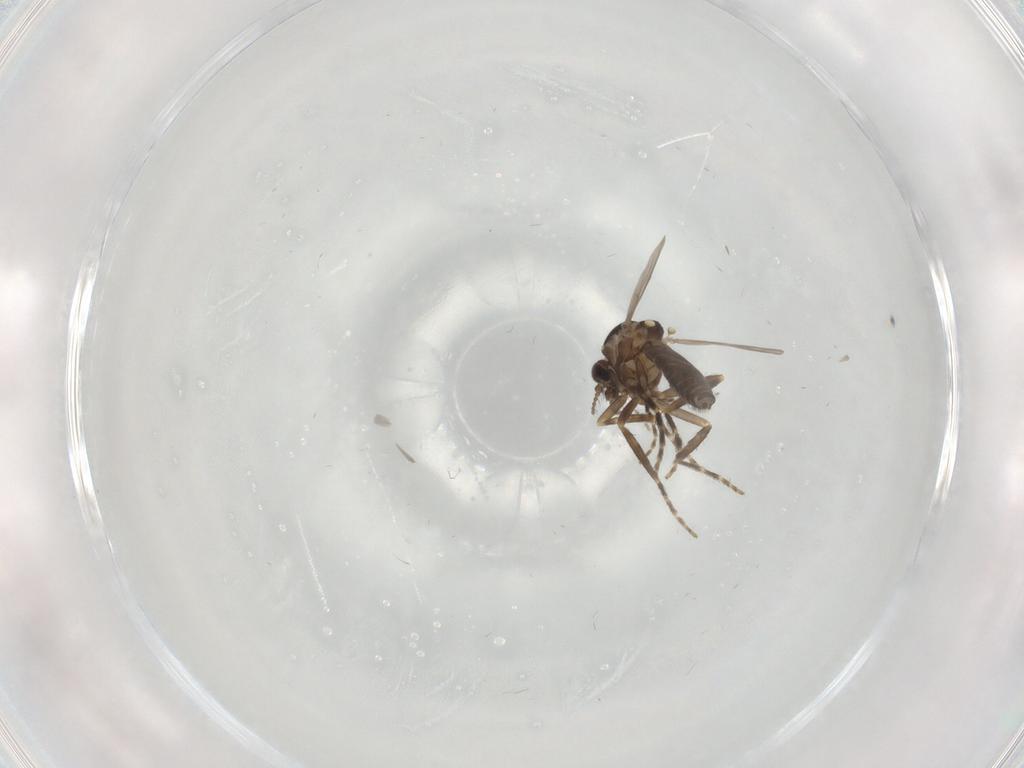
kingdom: Animalia
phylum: Arthropoda
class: Insecta
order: Diptera
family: Ceratopogonidae
